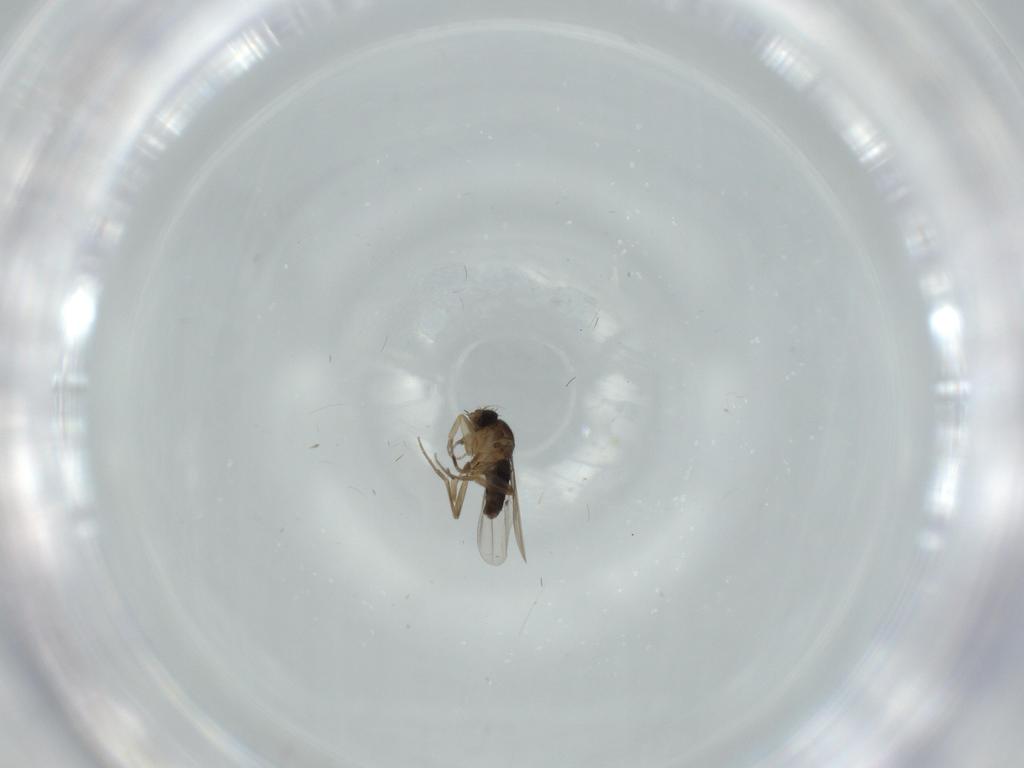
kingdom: Animalia
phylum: Arthropoda
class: Insecta
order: Diptera
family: Phoridae
